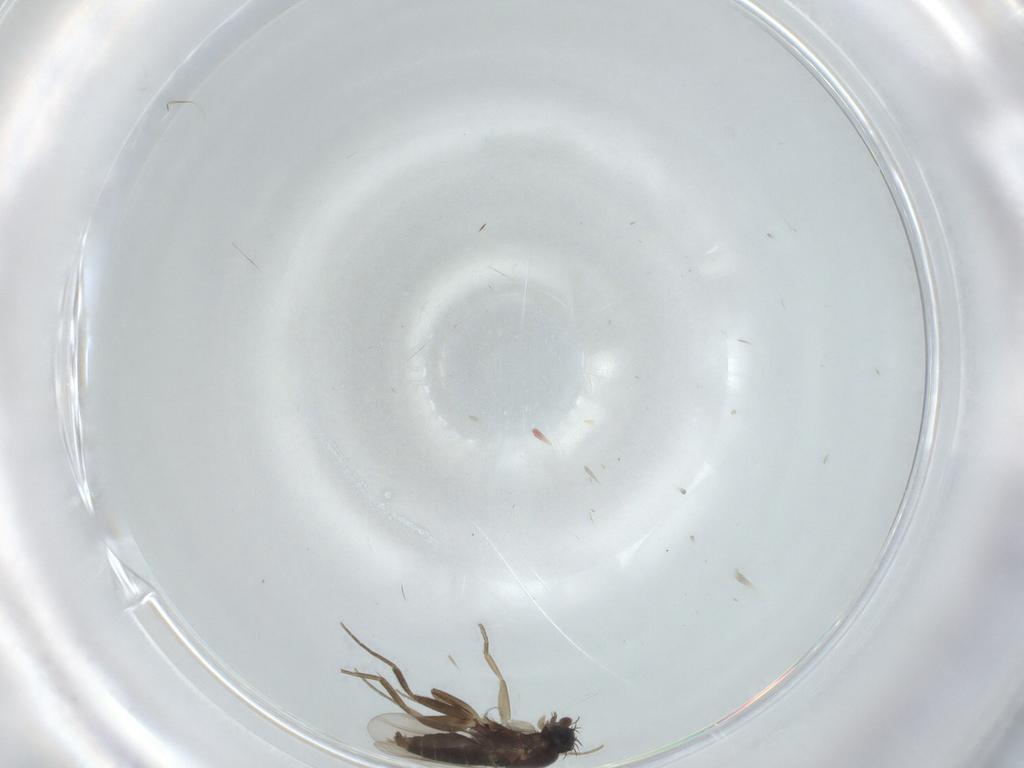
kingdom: Animalia
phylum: Arthropoda
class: Insecta
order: Diptera
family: Phoridae
